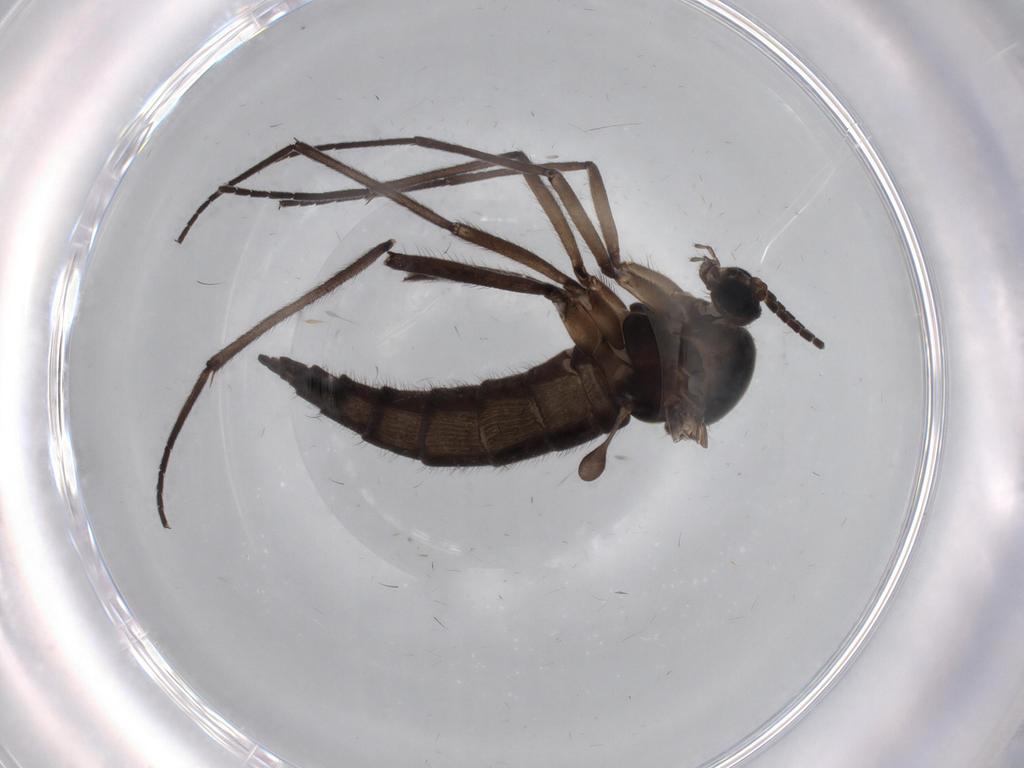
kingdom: Animalia
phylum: Arthropoda
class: Insecta
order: Diptera
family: Sciaridae
